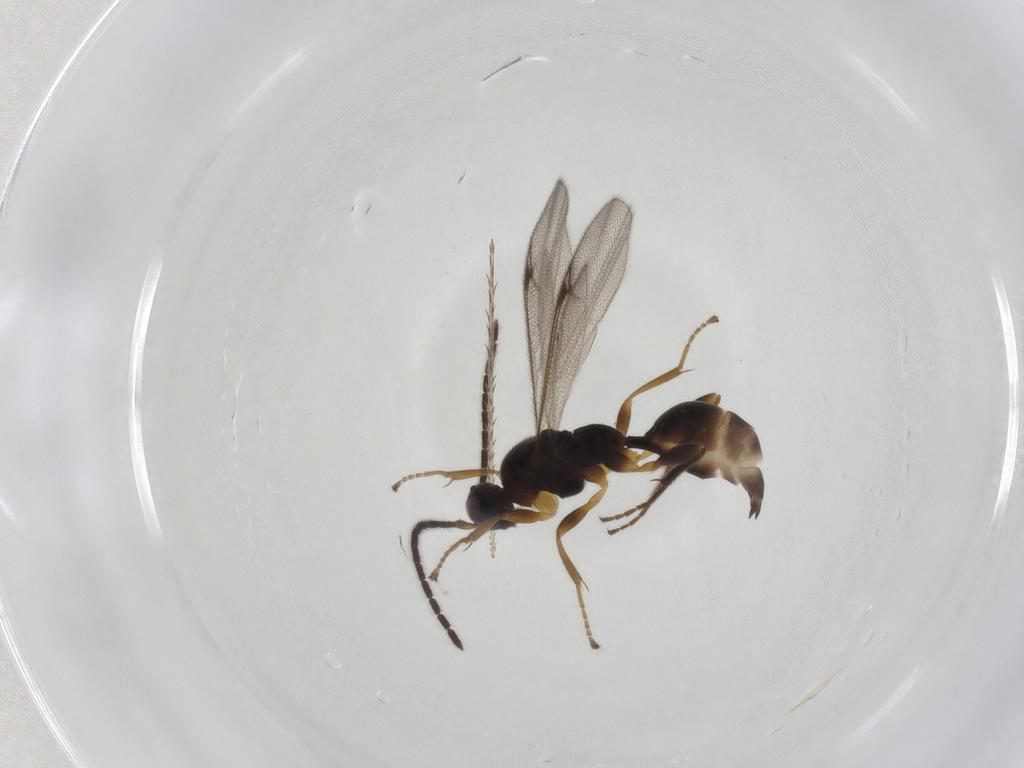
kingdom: Animalia
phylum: Arthropoda
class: Insecta
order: Hymenoptera
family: Proctotrupidae
